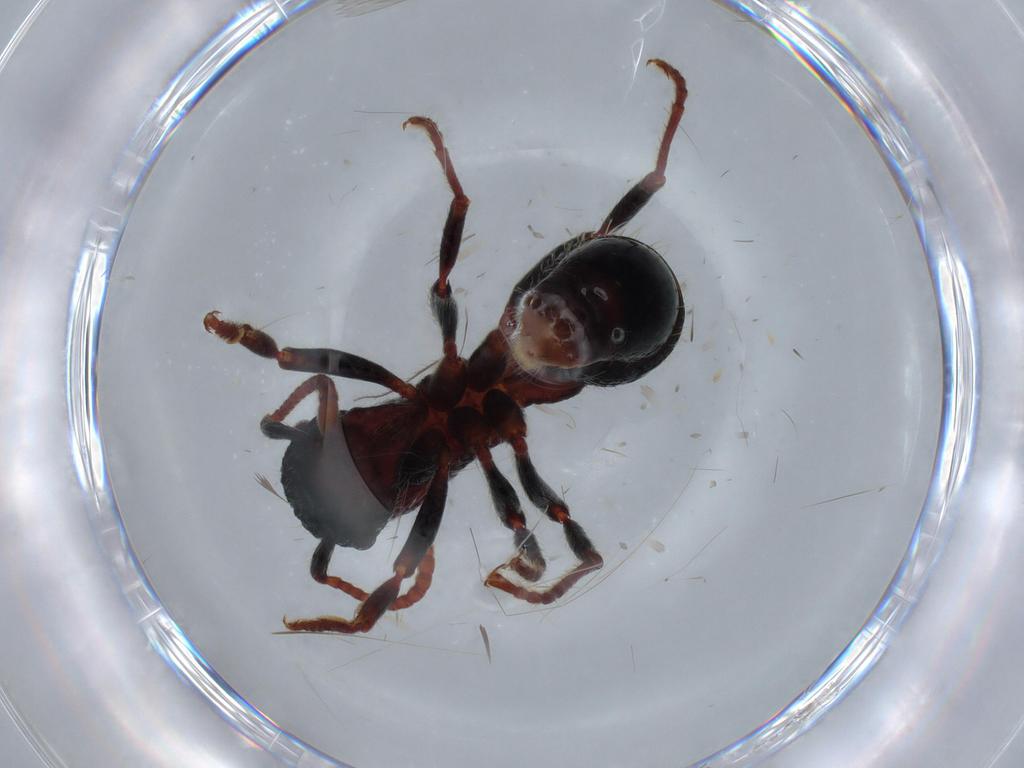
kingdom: Animalia
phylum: Arthropoda
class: Insecta
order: Hymenoptera
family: Formicidae
